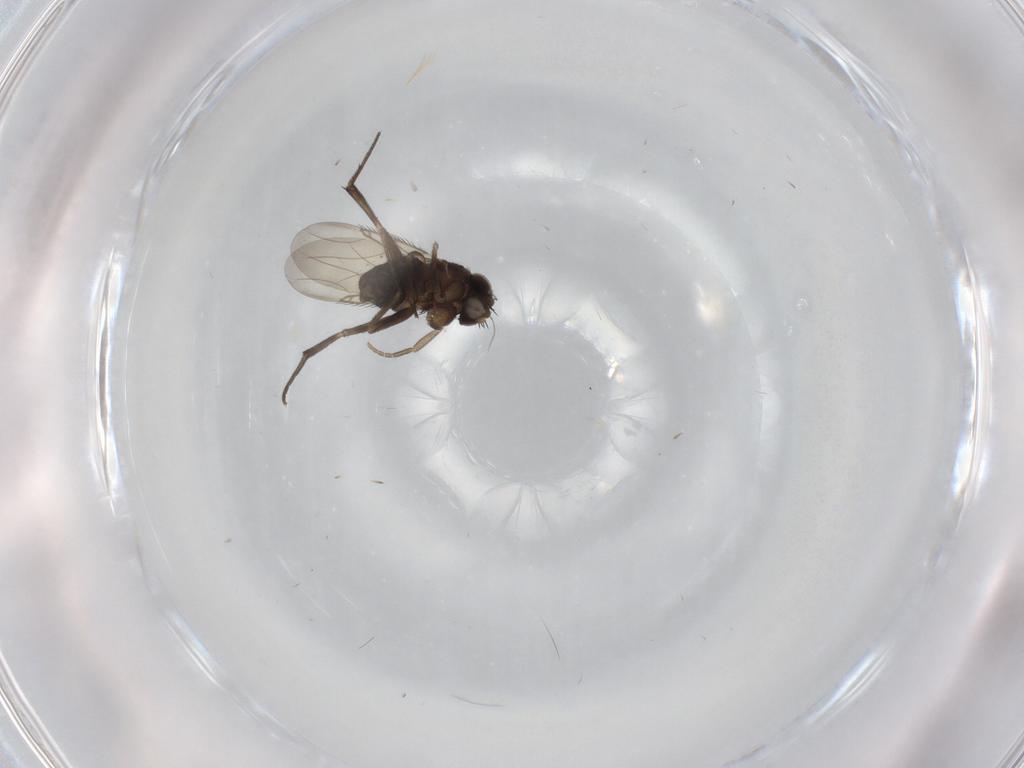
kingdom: Animalia
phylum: Arthropoda
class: Insecta
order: Diptera
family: Phoridae
